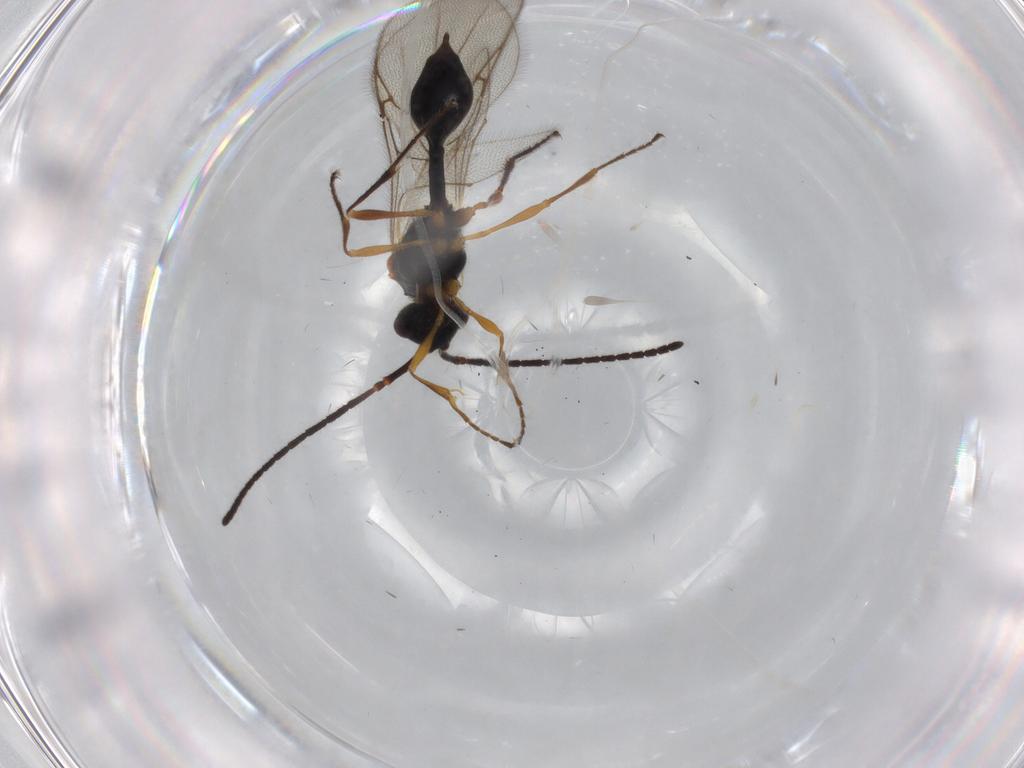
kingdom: Animalia
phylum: Arthropoda
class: Insecta
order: Hymenoptera
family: Diapriidae
